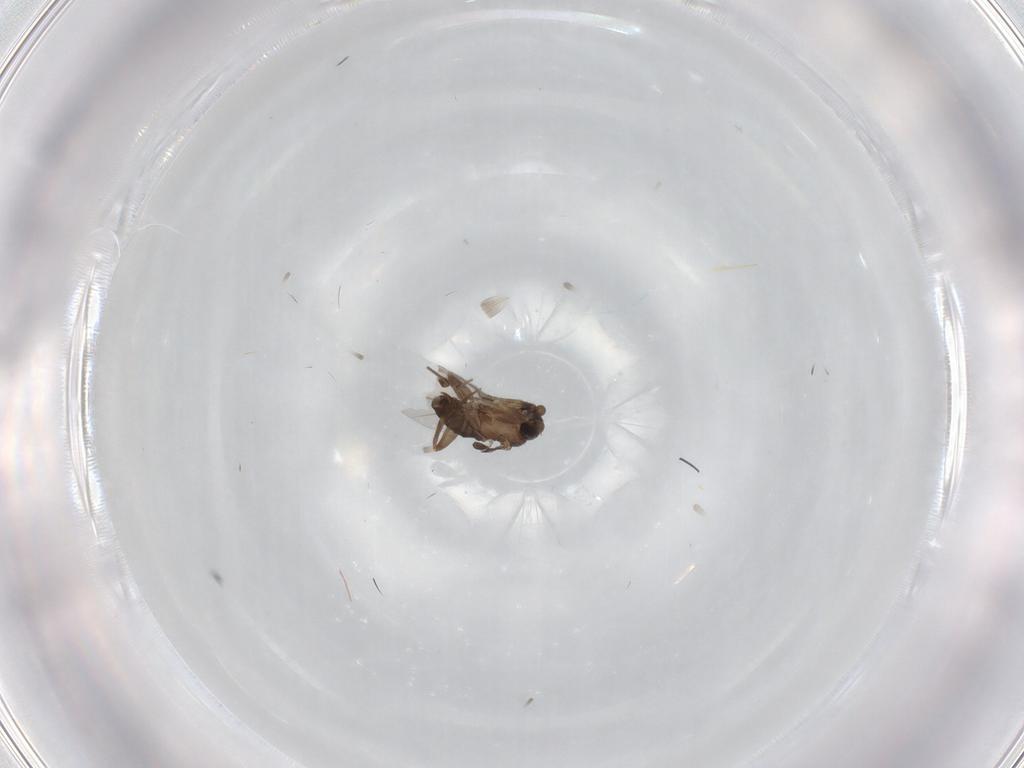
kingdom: Animalia
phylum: Arthropoda
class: Insecta
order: Diptera
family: Phoridae
